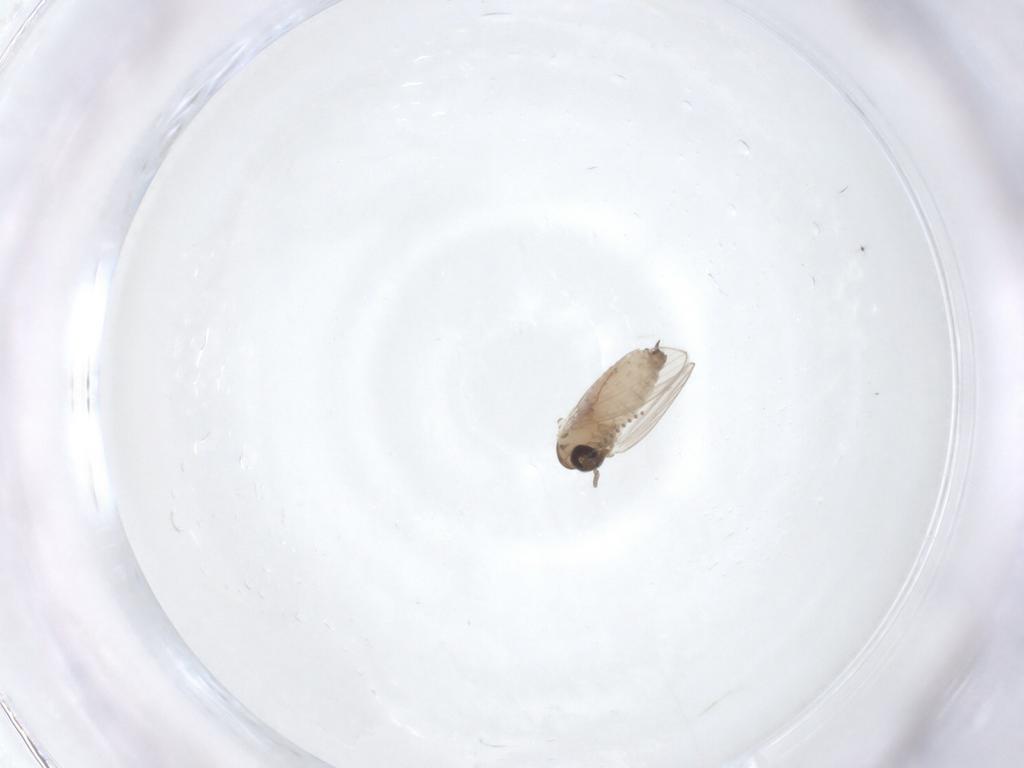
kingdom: Animalia
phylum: Arthropoda
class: Insecta
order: Diptera
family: Psychodidae
